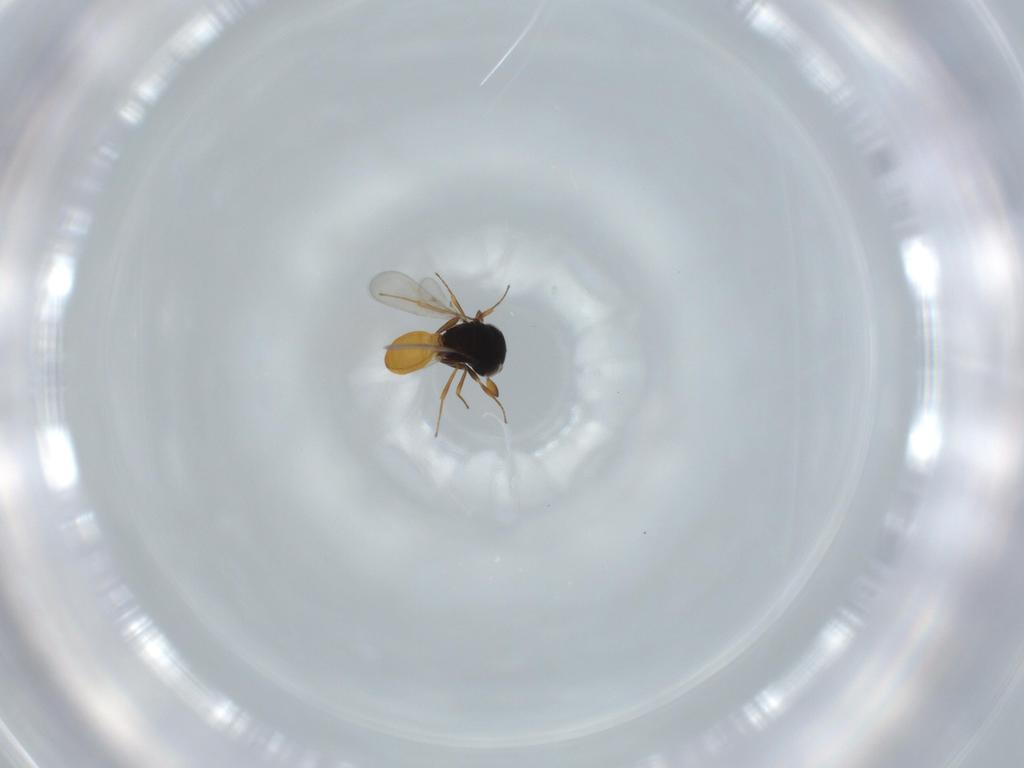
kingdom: Animalia
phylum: Arthropoda
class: Insecta
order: Hymenoptera
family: Scelionidae
